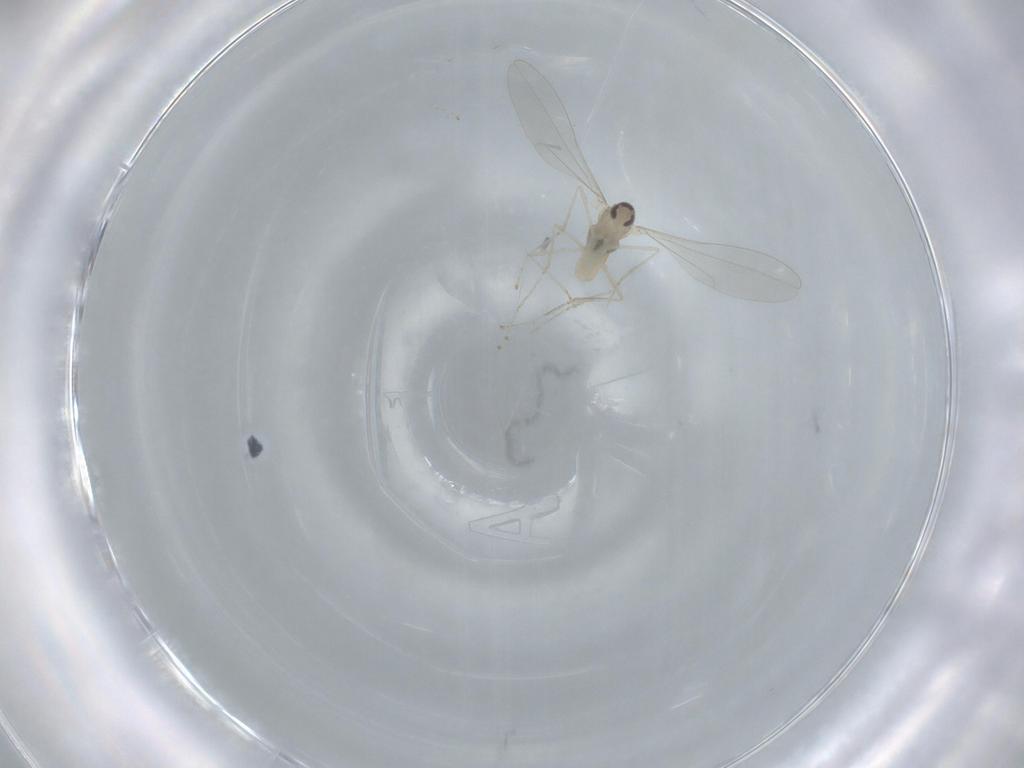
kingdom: Animalia
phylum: Arthropoda
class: Insecta
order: Diptera
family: Cecidomyiidae
